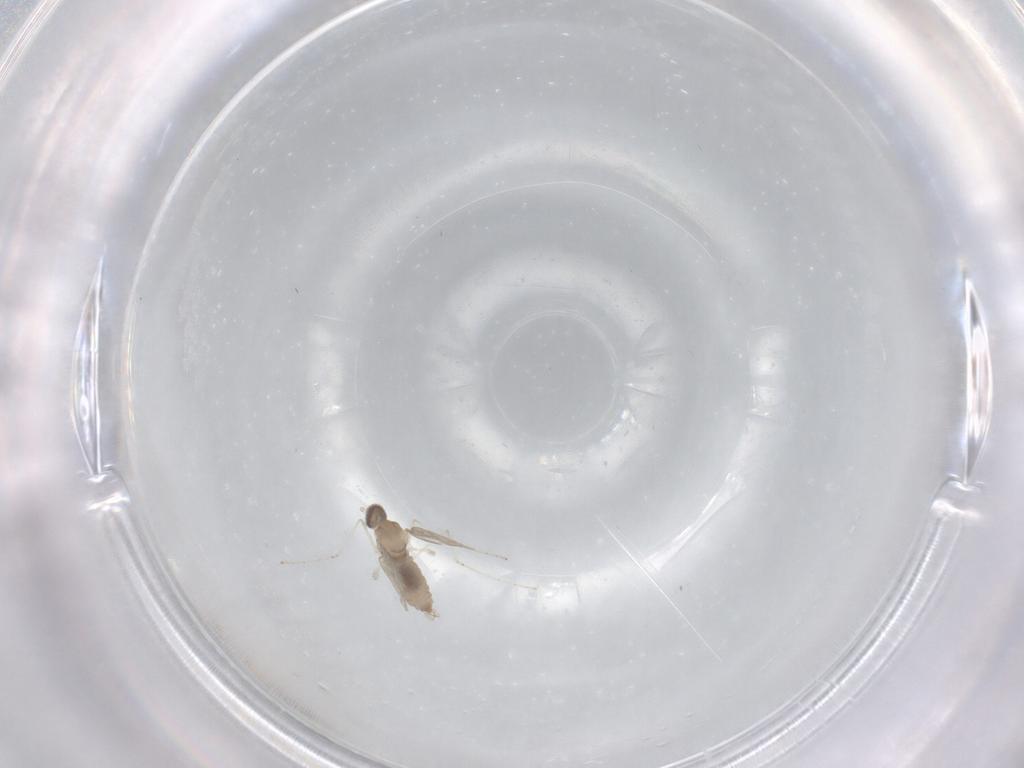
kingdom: Animalia
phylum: Arthropoda
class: Insecta
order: Diptera
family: Cecidomyiidae
